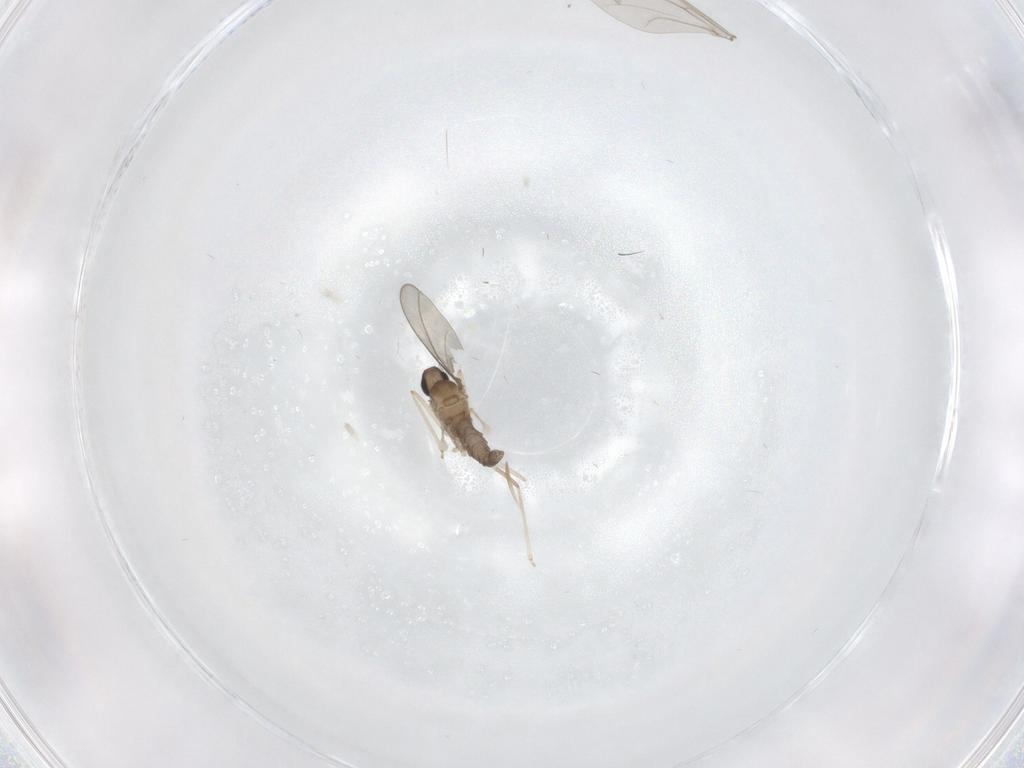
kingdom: Animalia
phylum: Arthropoda
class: Insecta
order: Diptera
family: Cecidomyiidae
